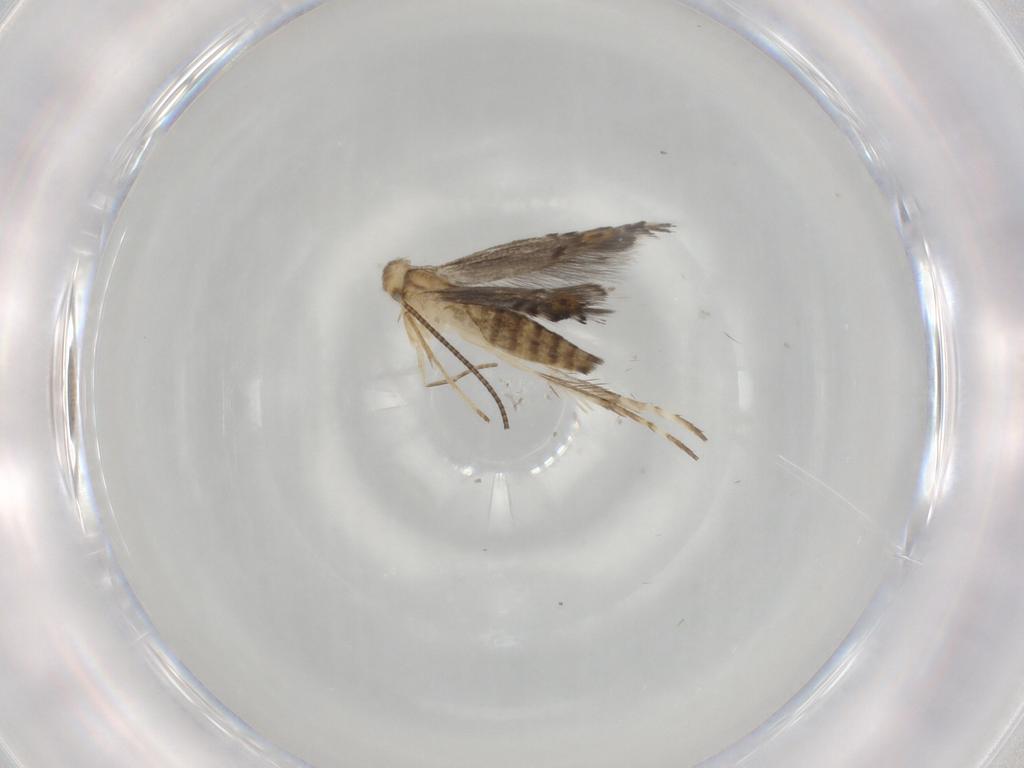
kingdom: Animalia
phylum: Arthropoda
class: Insecta
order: Lepidoptera
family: Gracillariidae
